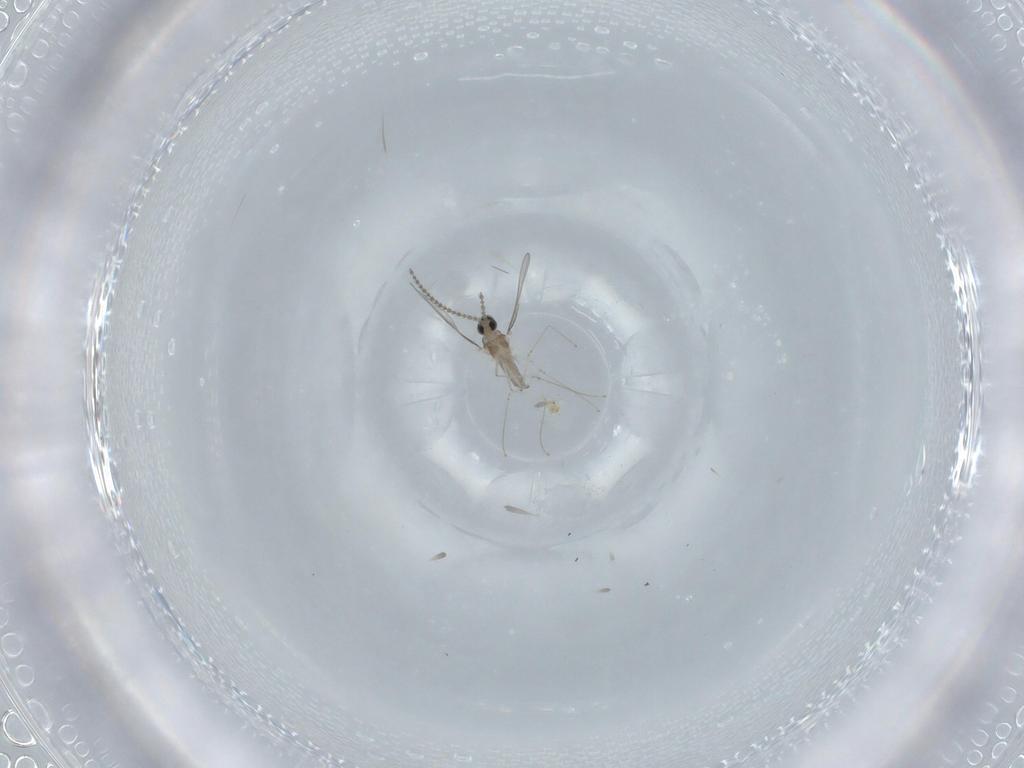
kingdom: Animalia
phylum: Arthropoda
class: Insecta
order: Diptera
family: Cecidomyiidae
